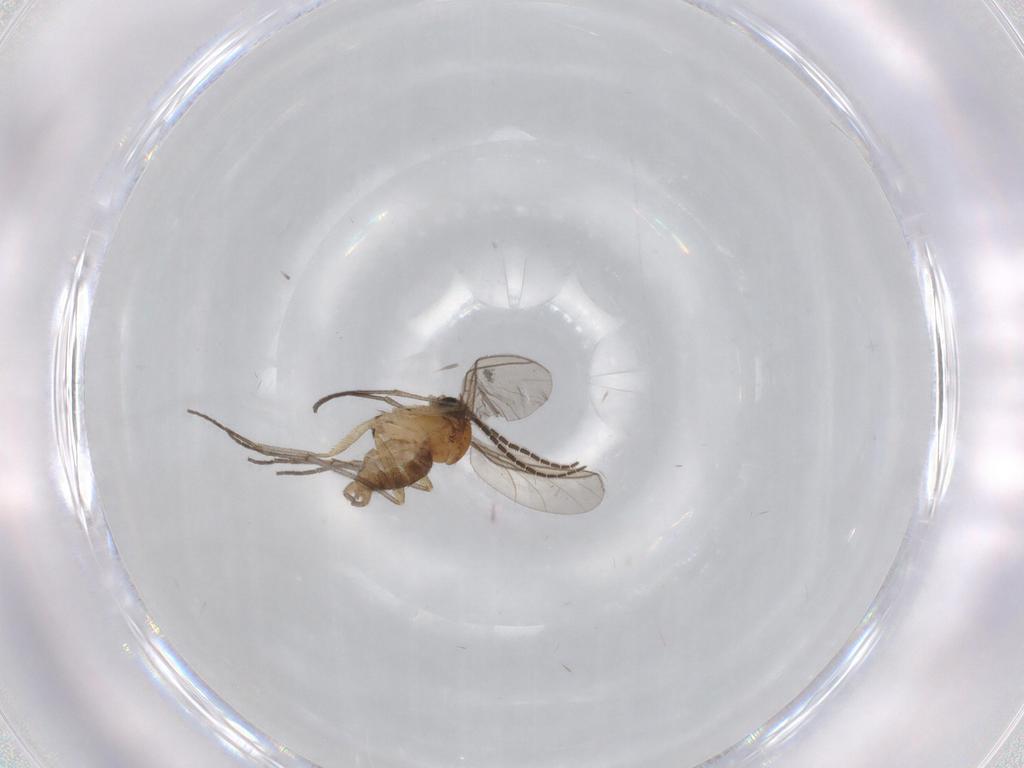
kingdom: Animalia
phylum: Arthropoda
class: Insecta
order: Diptera
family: Sciaridae
